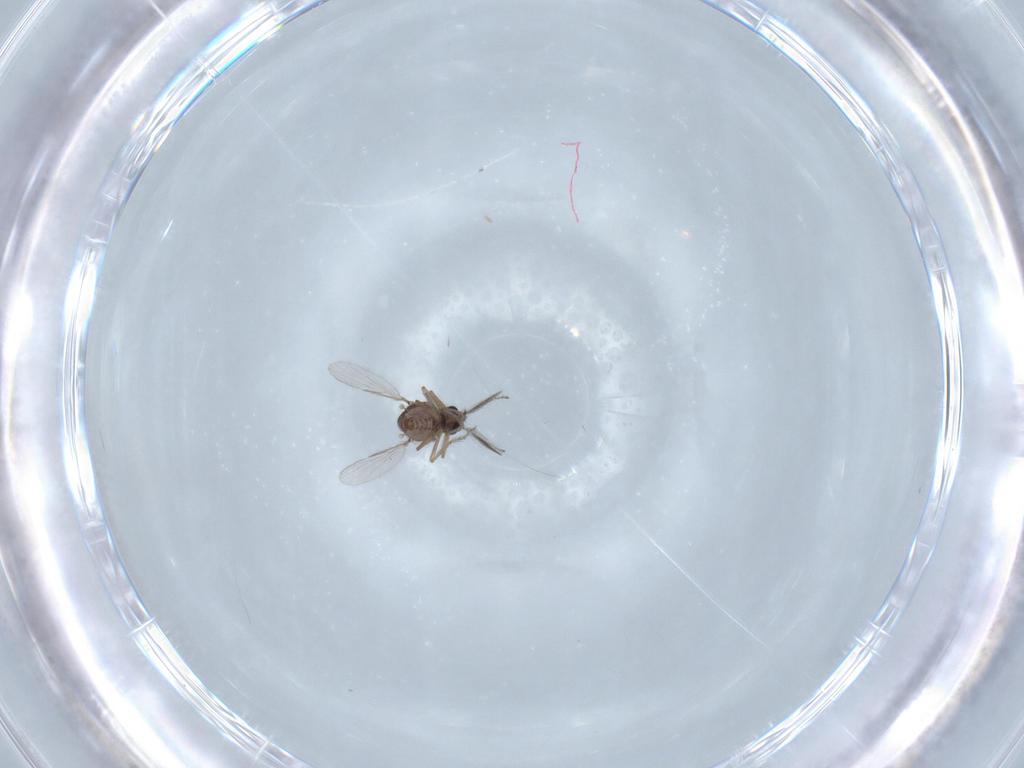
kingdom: Animalia
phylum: Arthropoda
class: Insecta
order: Diptera
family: Ceratopogonidae
